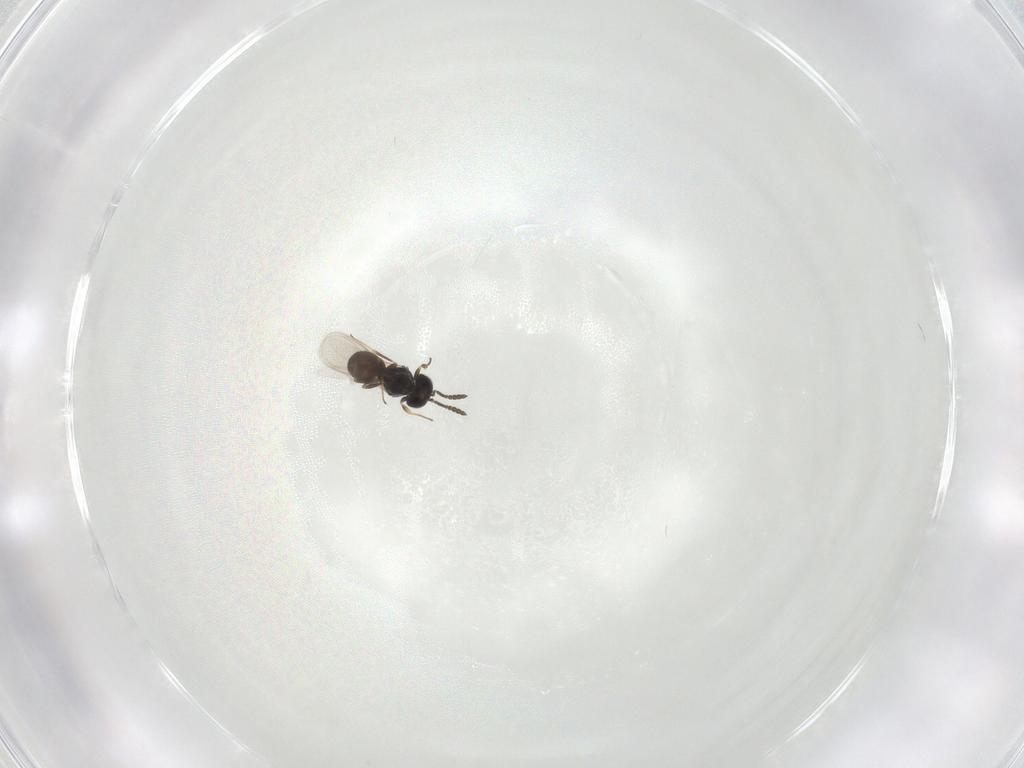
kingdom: Animalia
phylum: Arthropoda
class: Insecta
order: Hymenoptera
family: Scelionidae
